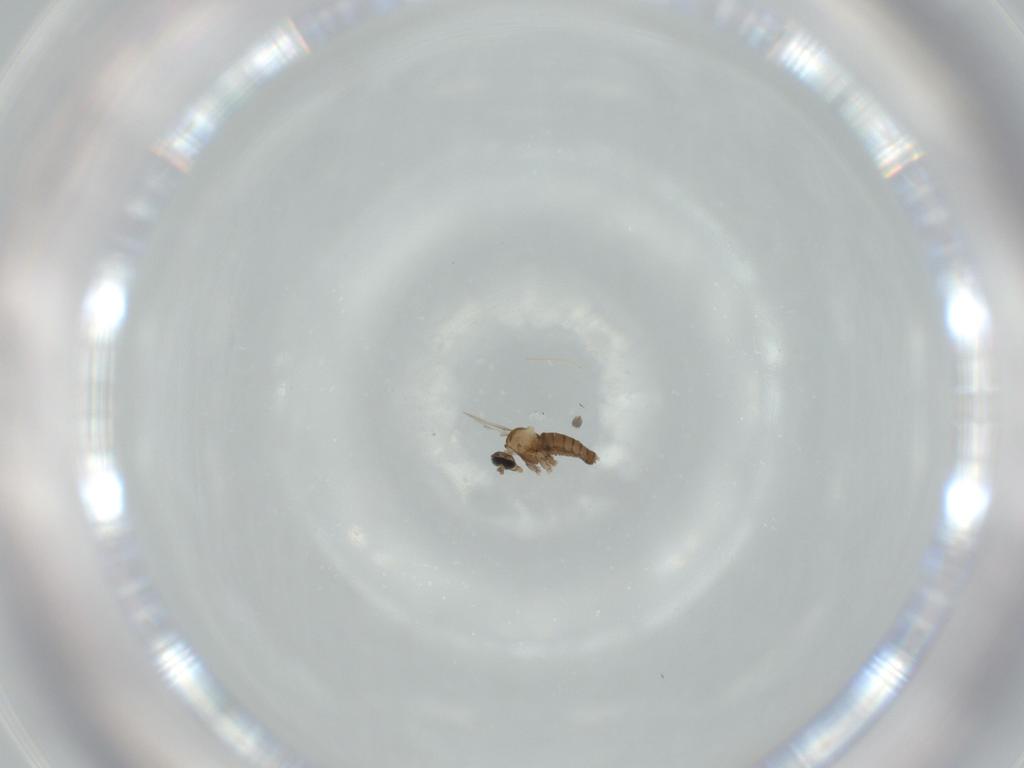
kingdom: Animalia
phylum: Arthropoda
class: Insecta
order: Diptera
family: Cecidomyiidae
